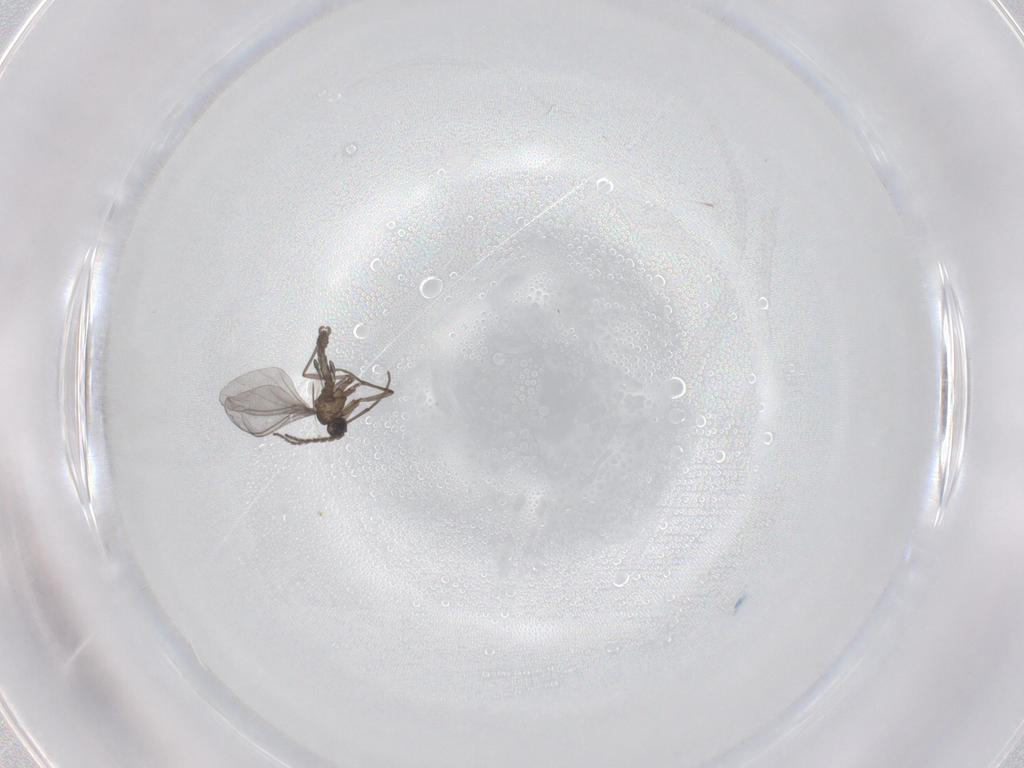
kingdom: Animalia
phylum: Arthropoda
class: Insecta
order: Diptera
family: Sciaridae
